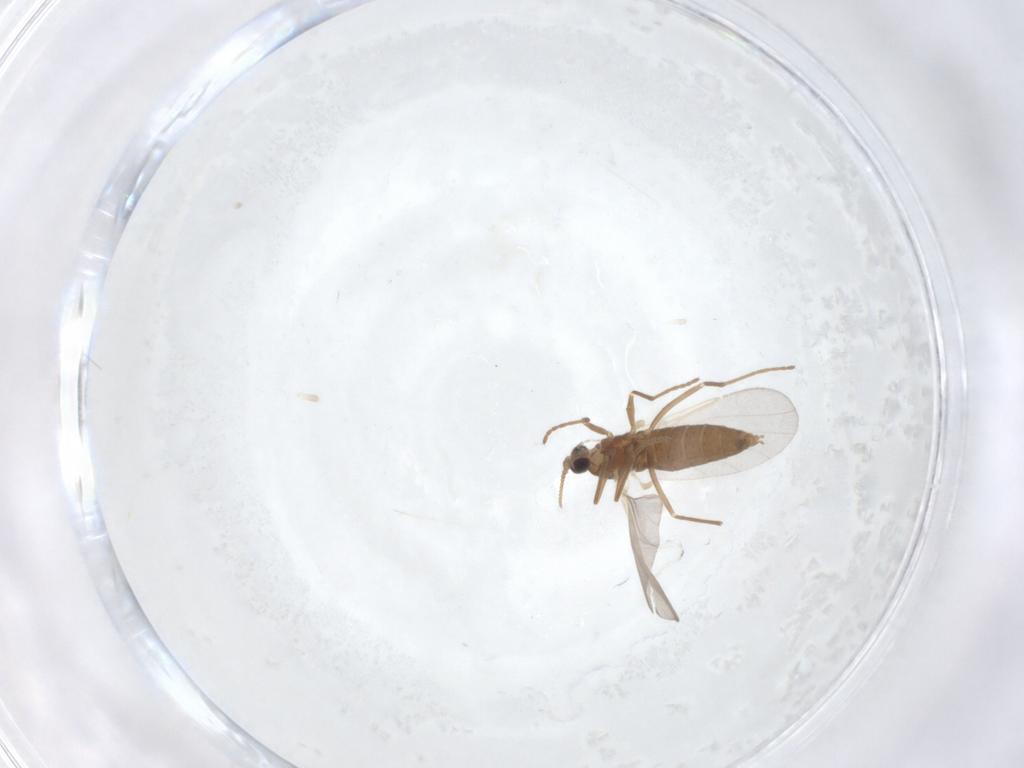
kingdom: Animalia
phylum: Arthropoda
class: Insecta
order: Diptera
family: Cecidomyiidae
